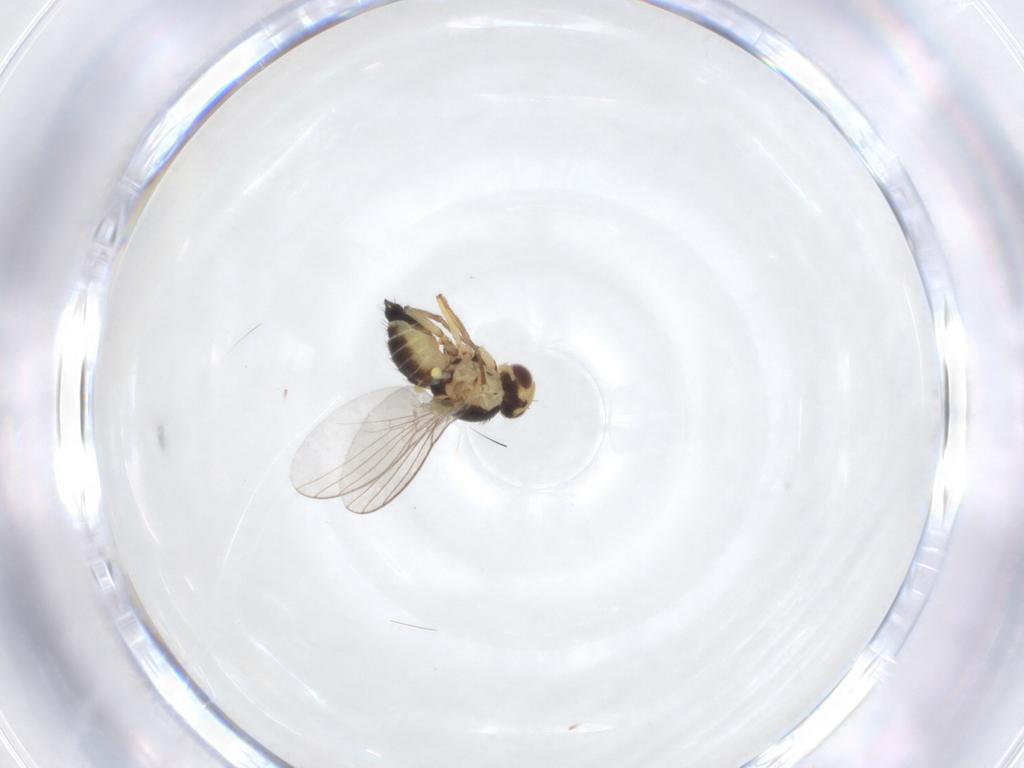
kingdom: Animalia
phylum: Arthropoda
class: Insecta
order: Diptera
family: Agromyzidae
